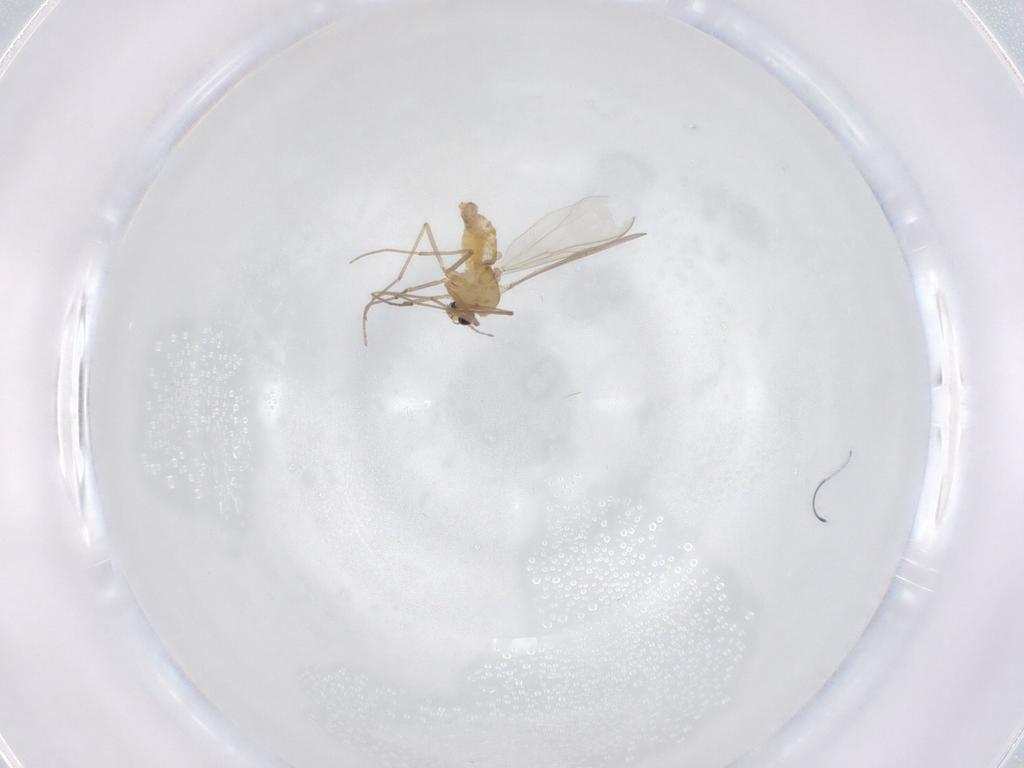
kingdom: Animalia
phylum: Arthropoda
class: Insecta
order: Diptera
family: Chironomidae
